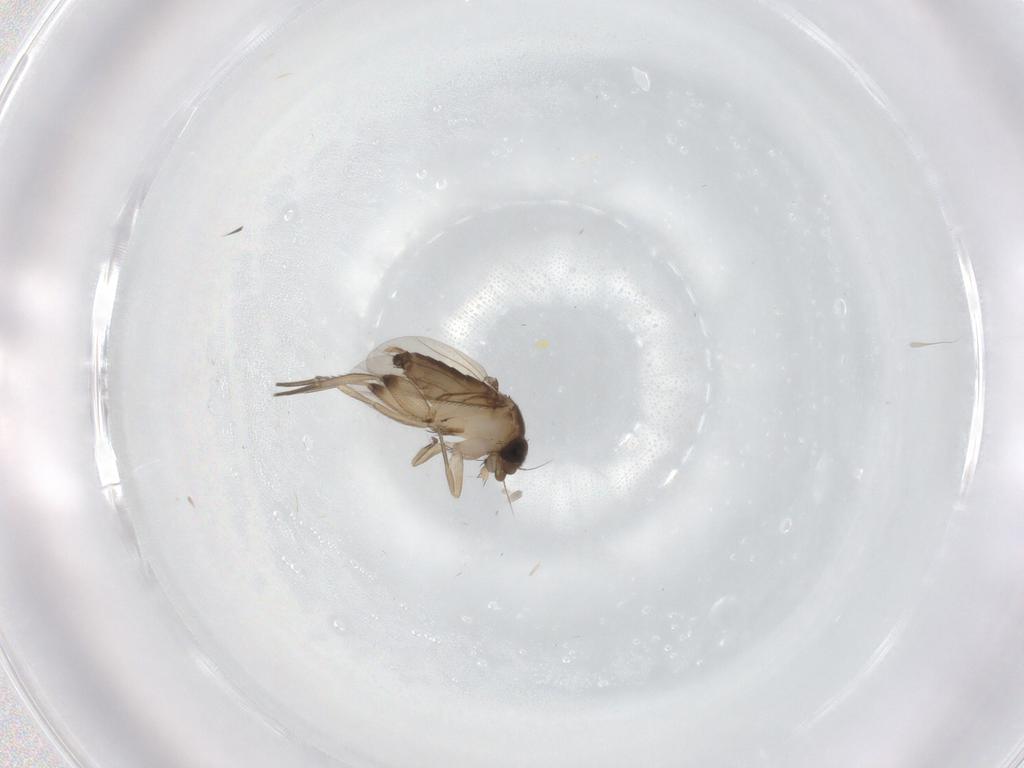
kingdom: Animalia
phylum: Arthropoda
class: Insecta
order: Diptera
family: Phoridae
